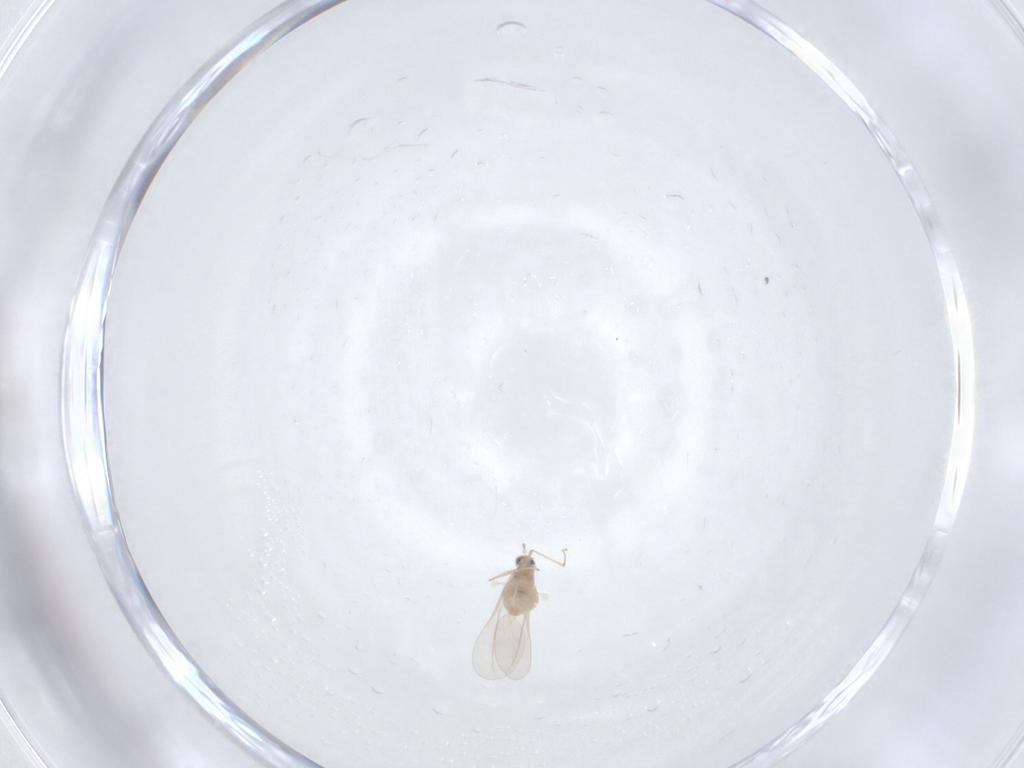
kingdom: Animalia
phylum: Arthropoda
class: Insecta
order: Diptera
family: Cecidomyiidae
